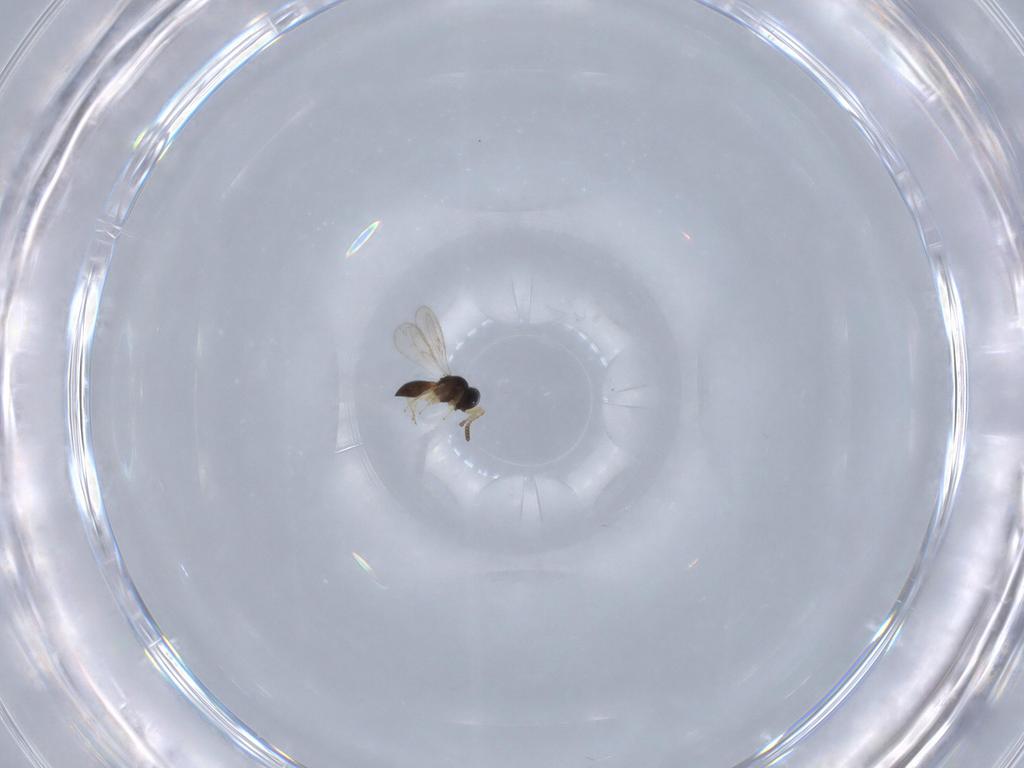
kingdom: Animalia
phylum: Arthropoda
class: Insecta
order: Hymenoptera
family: Scelionidae
